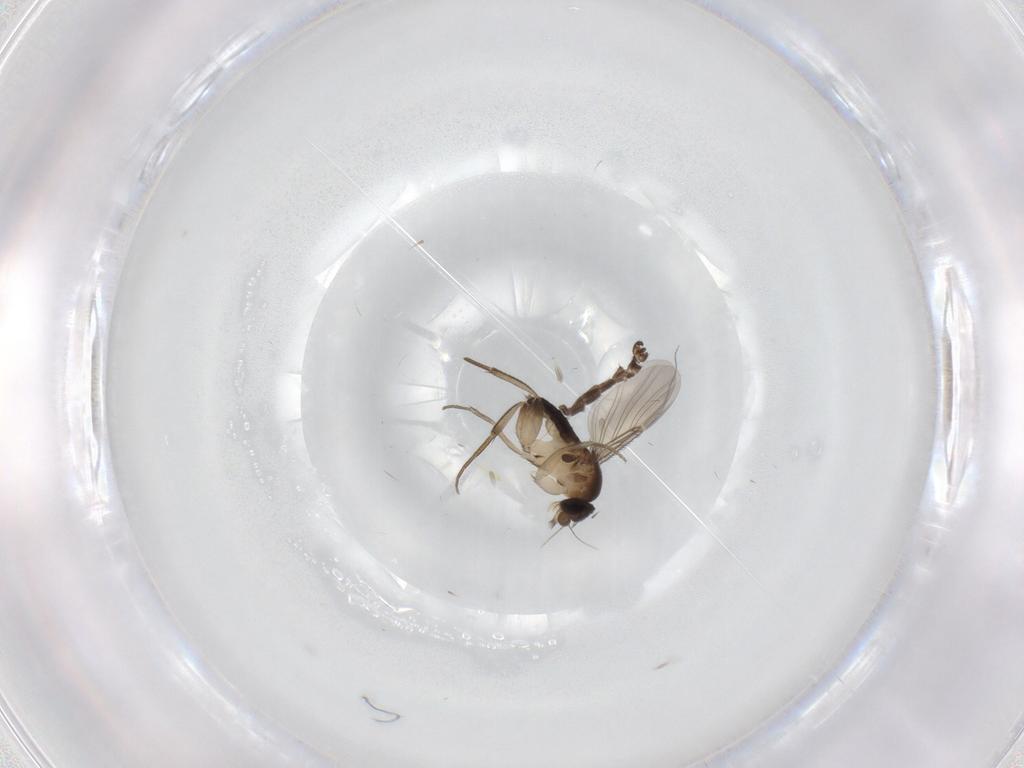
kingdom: Animalia
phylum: Arthropoda
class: Insecta
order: Diptera
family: Phoridae
